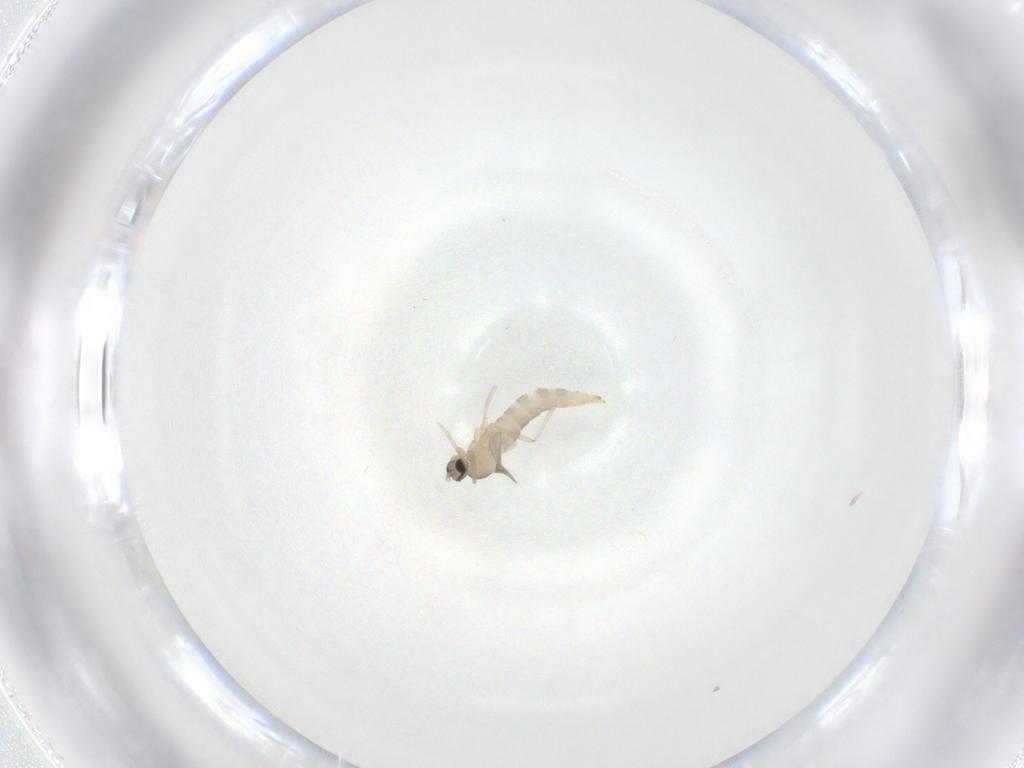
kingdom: Animalia
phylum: Arthropoda
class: Insecta
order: Diptera
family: Cecidomyiidae
